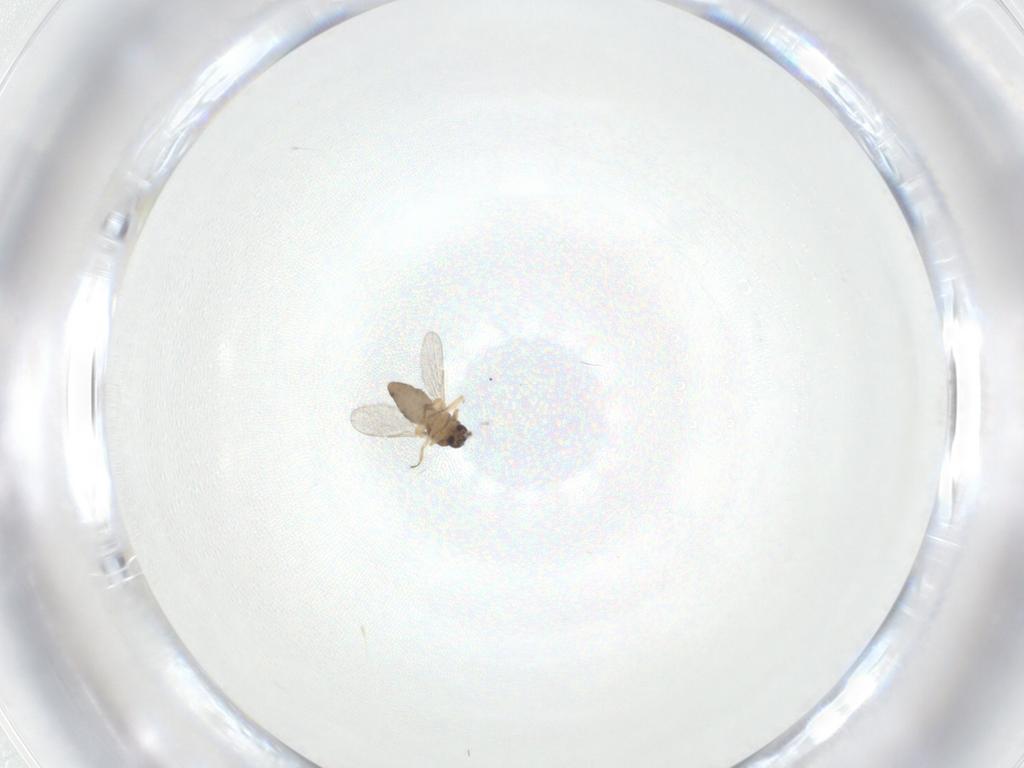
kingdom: Animalia
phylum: Arthropoda
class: Insecta
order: Diptera
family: Ceratopogonidae
